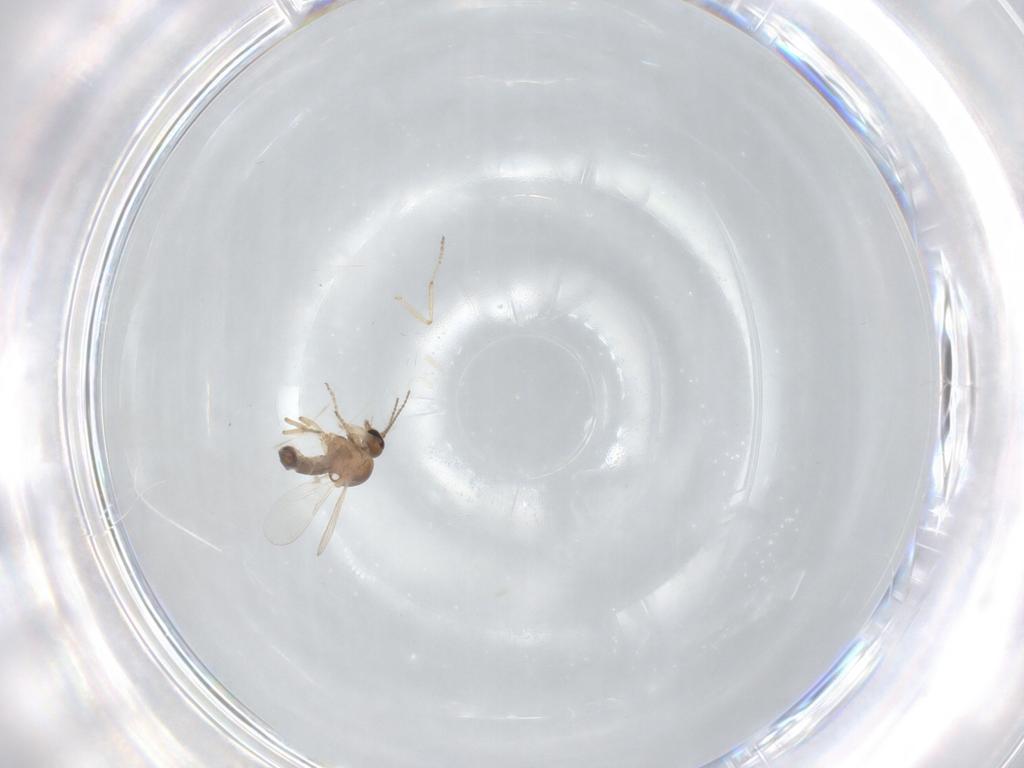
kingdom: Animalia
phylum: Arthropoda
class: Insecta
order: Diptera
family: Ceratopogonidae
